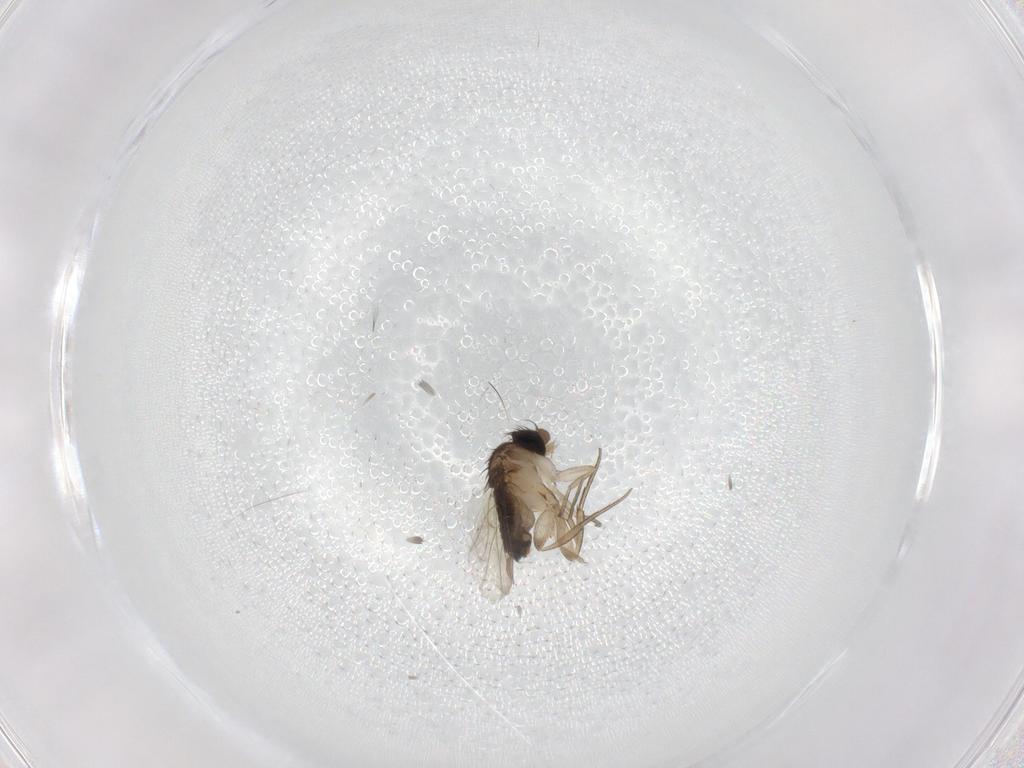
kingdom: Animalia
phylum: Arthropoda
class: Insecta
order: Diptera
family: Phoridae
